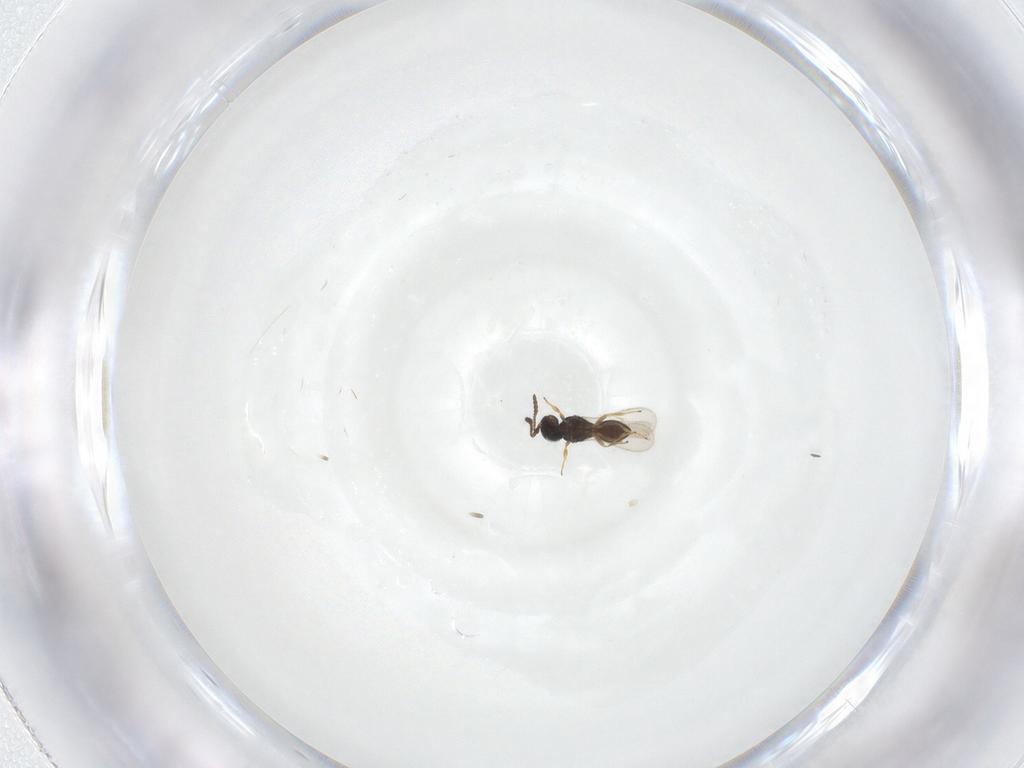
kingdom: Animalia
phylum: Arthropoda
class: Insecta
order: Hymenoptera
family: Scelionidae
